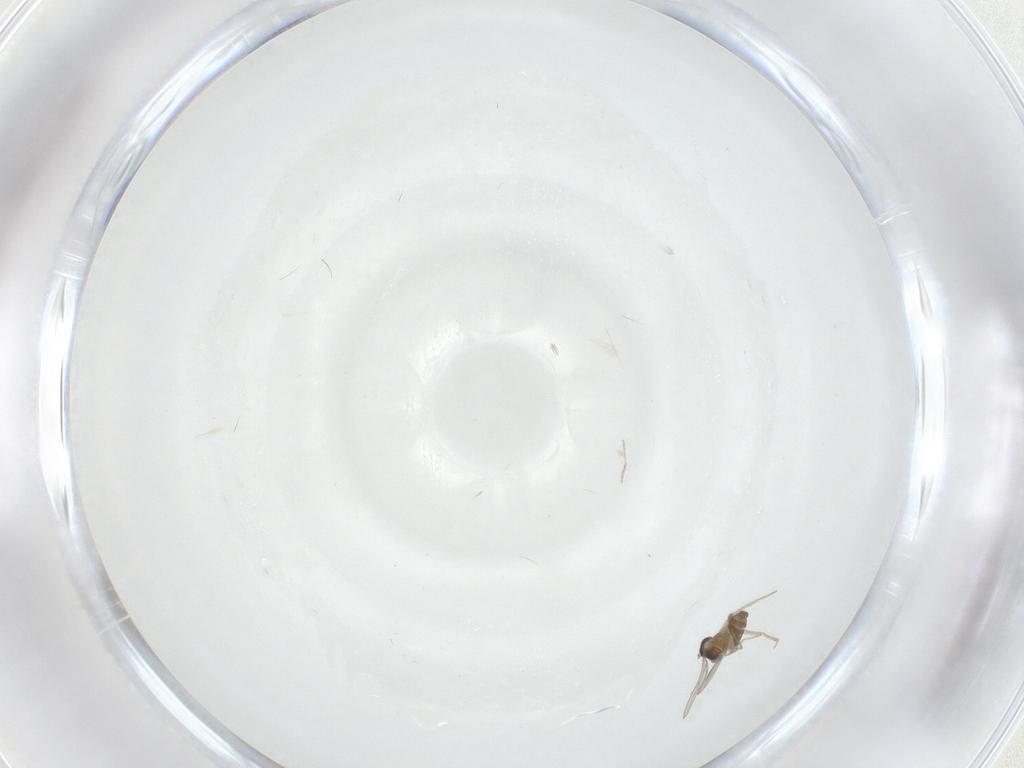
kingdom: Animalia
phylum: Arthropoda
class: Insecta
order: Diptera
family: Cecidomyiidae
